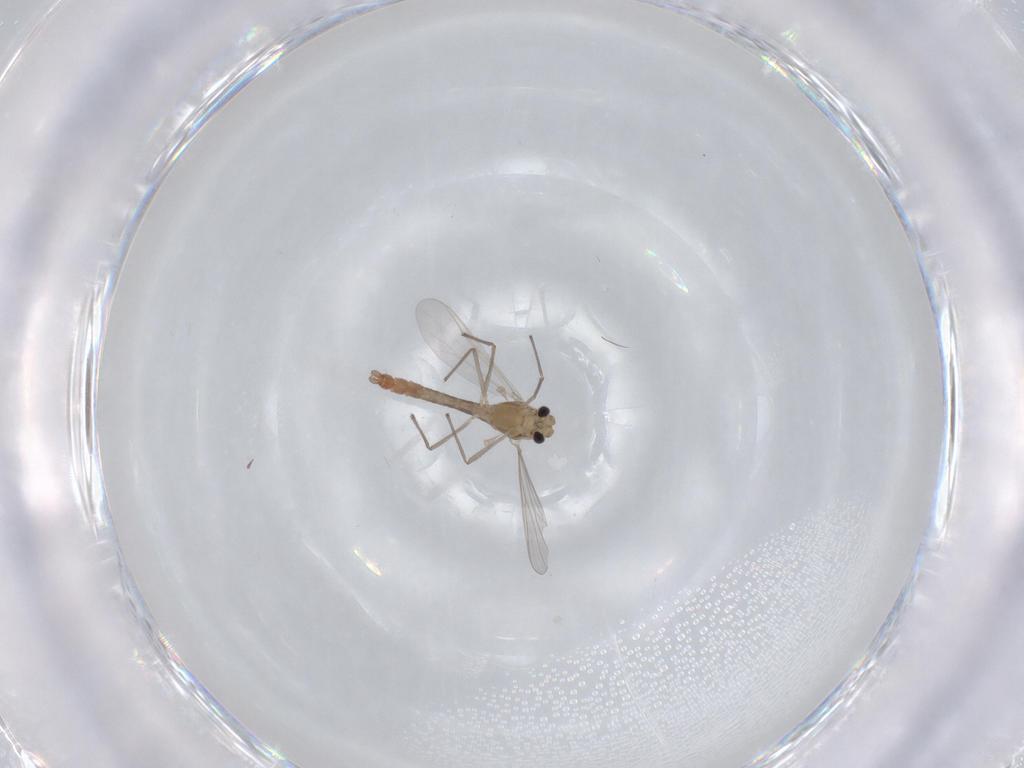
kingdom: Animalia
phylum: Arthropoda
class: Insecta
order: Diptera
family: Chironomidae
